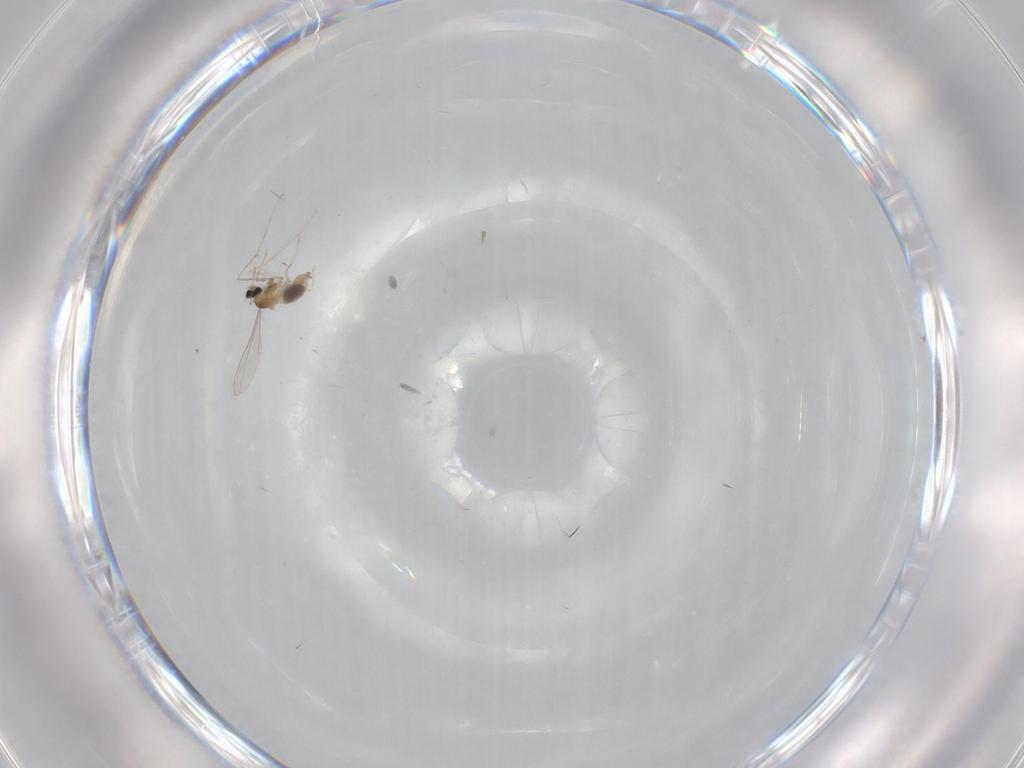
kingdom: Animalia
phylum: Arthropoda
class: Insecta
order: Diptera
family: Cecidomyiidae
